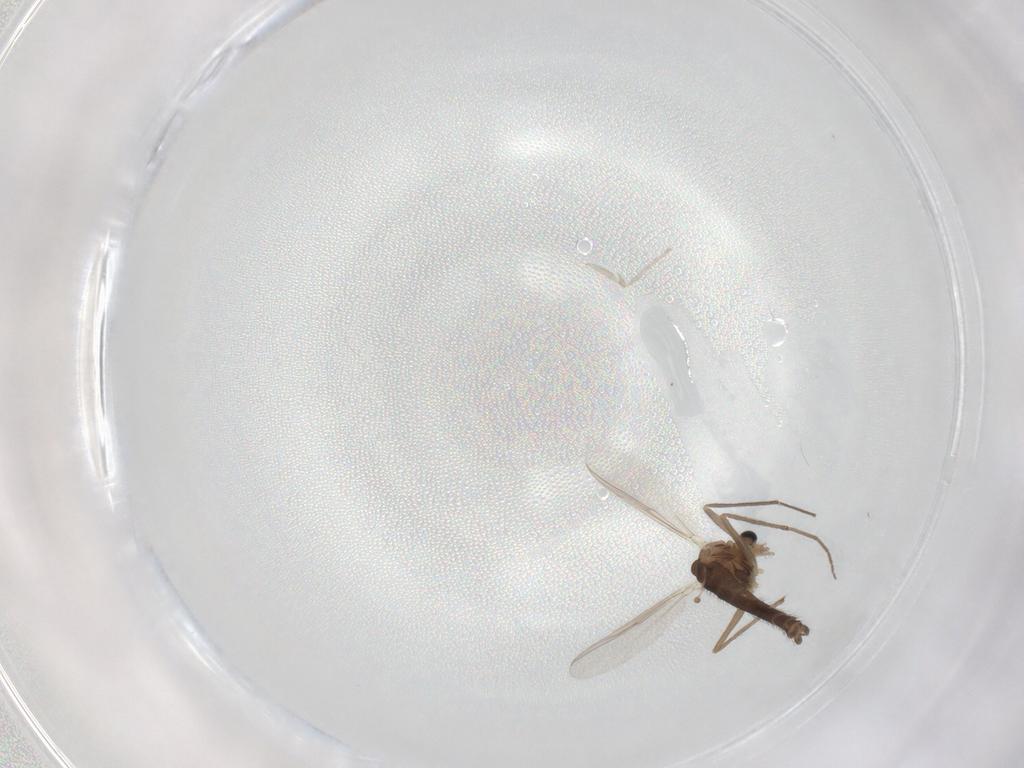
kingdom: Animalia
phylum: Arthropoda
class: Insecta
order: Diptera
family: Chironomidae
